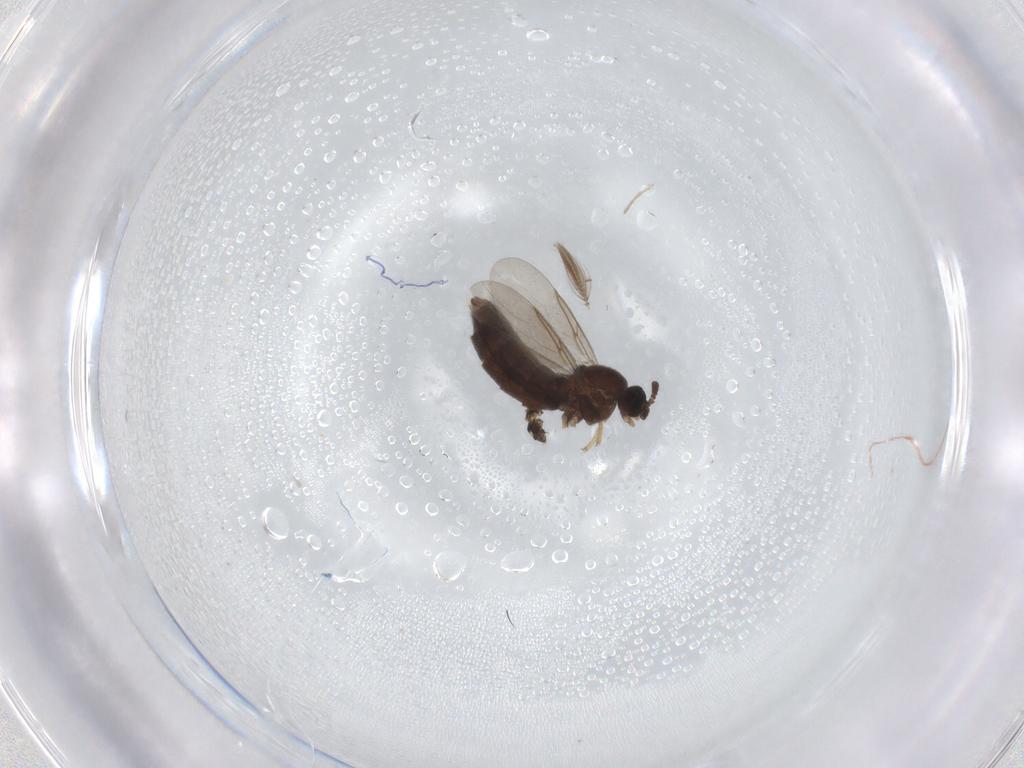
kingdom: Animalia
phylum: Arthropoda
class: Insecta
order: Diptera
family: Scatopsidae
